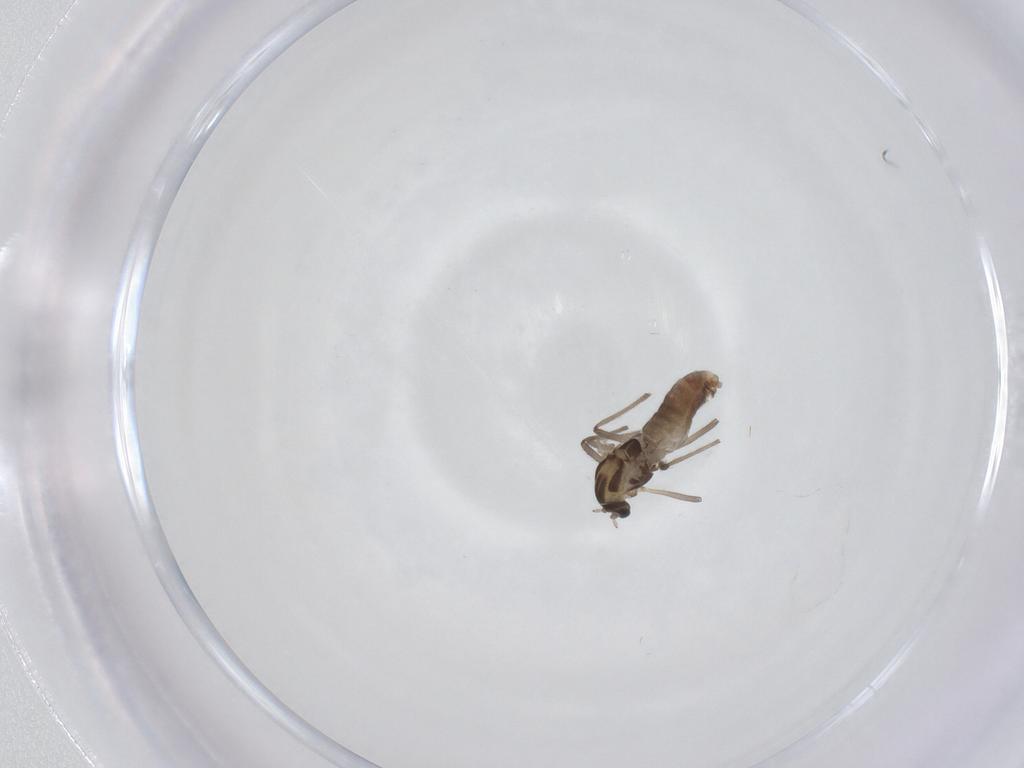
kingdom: Animalia
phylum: Arthropoda
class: Insecta
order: Diptera
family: Chironomidae
